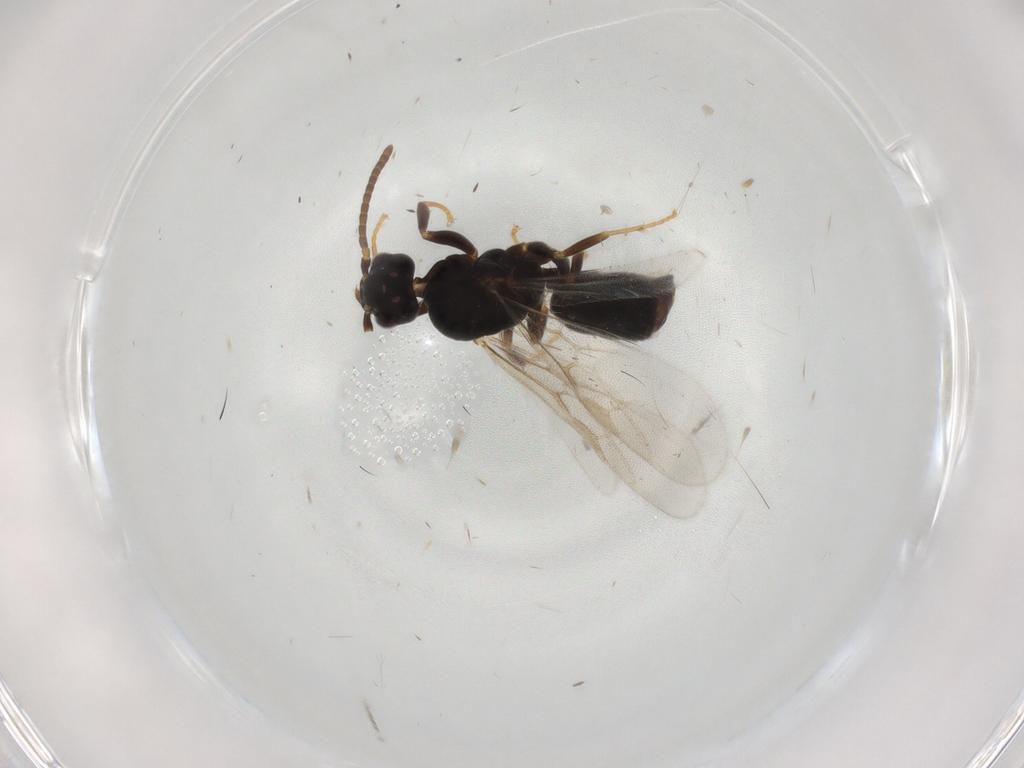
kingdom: Animalia
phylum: Arthropoda
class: Insecta
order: Hymenoptera
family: Formicidae
